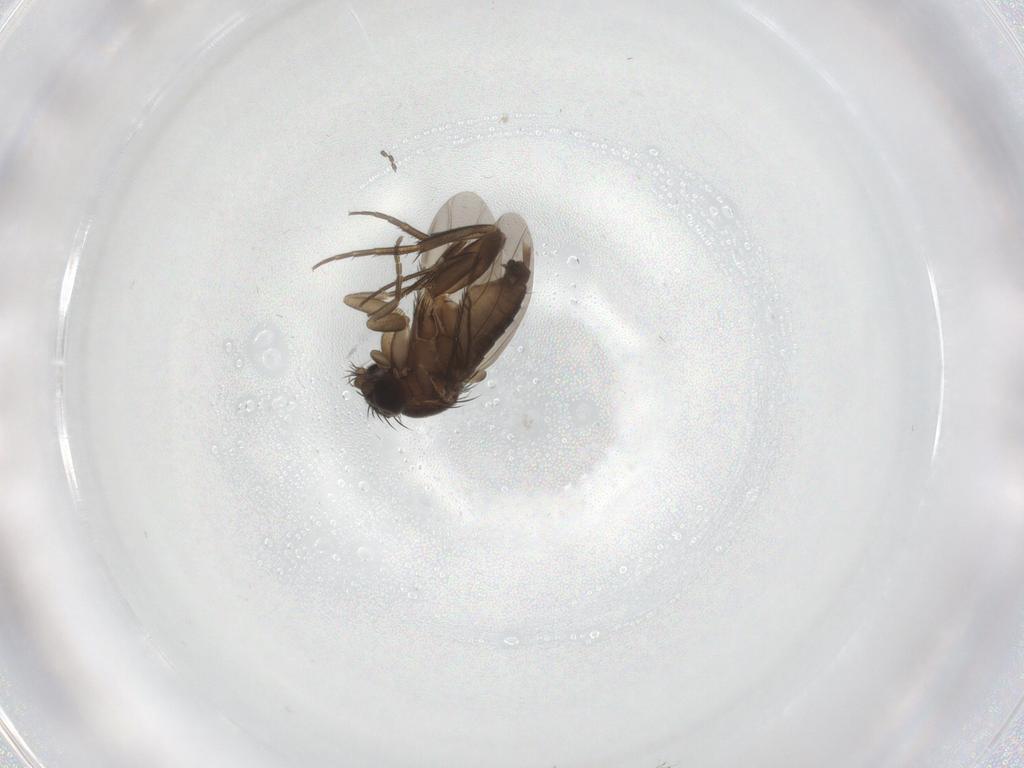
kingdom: Animalia
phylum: Arthropoda
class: Insecta
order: Diptera
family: Phoridae
